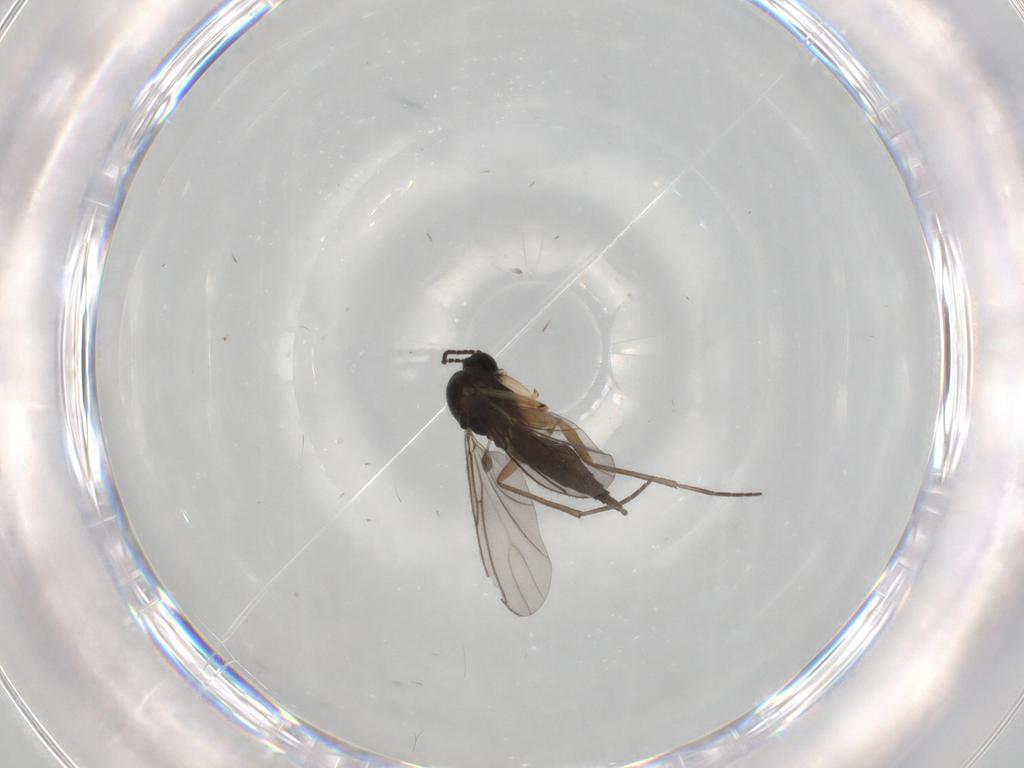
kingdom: Animalia
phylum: Arthropoda
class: Insecta
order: Diptera
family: Sciaridae
